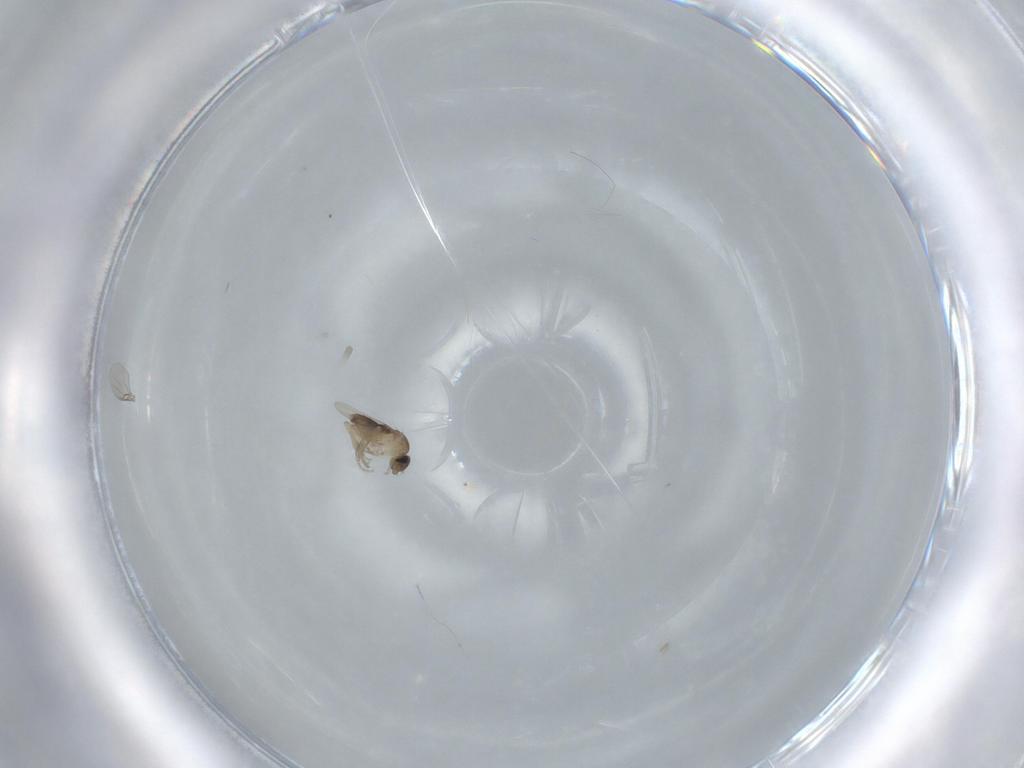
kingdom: Animalia
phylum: Arthropoda
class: Insecta
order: Diptera
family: Phoridae
